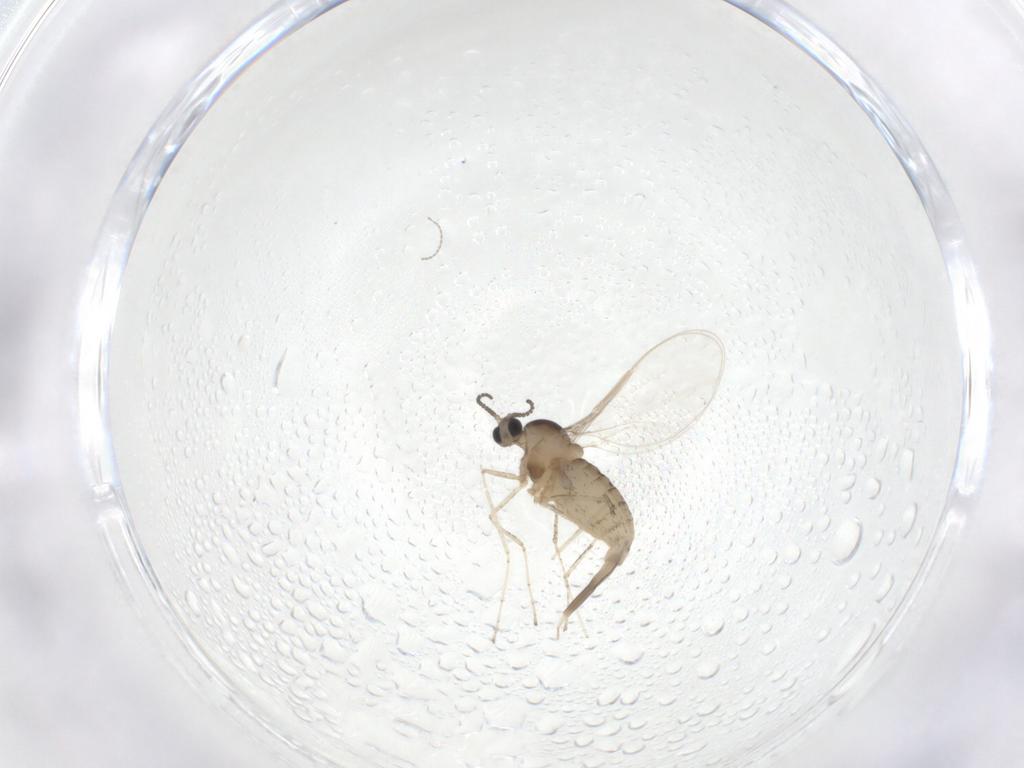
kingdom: Animalia
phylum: Arthropoda
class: Insecta
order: Diptera
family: Cecidomyiidae
